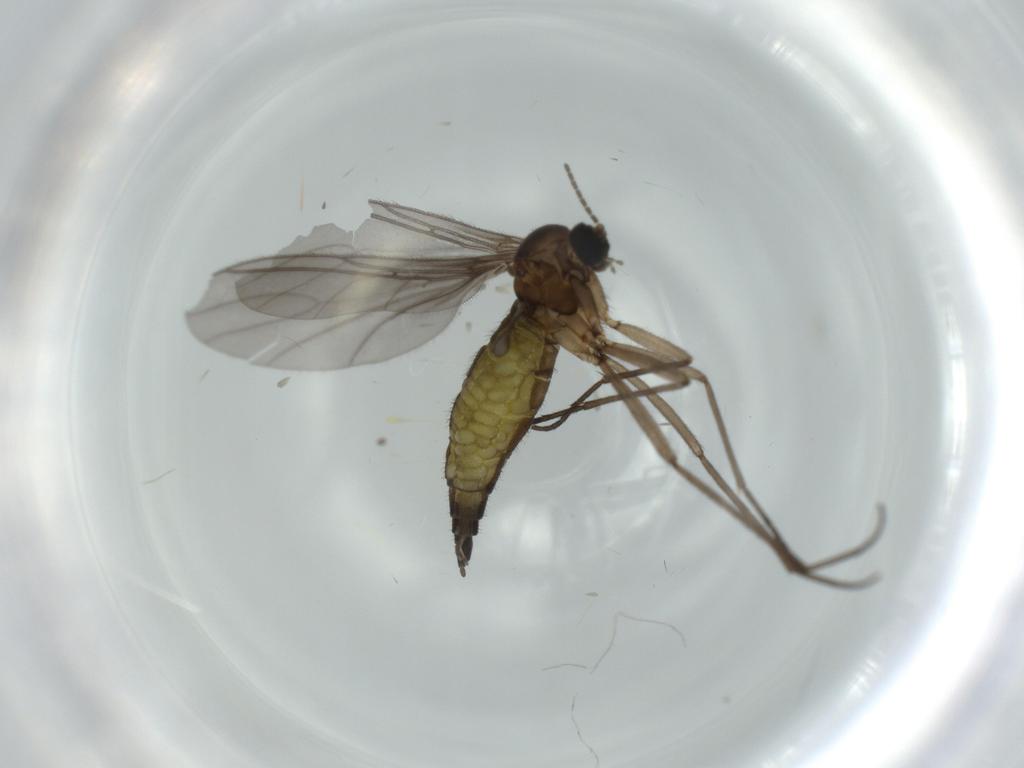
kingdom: Animalia
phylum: Arthropoda
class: Insecta
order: Diptera
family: Sciaridae
